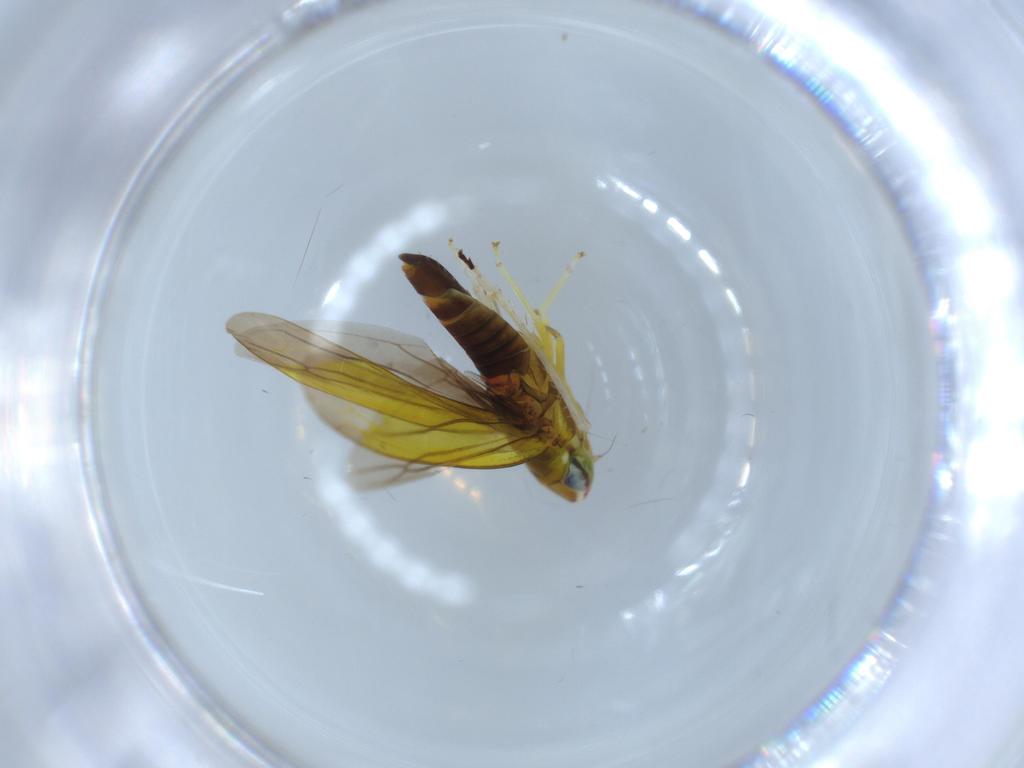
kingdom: Animalia
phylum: Arthropoda
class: Insecta
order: Hemiptera
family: Cicadellidae
